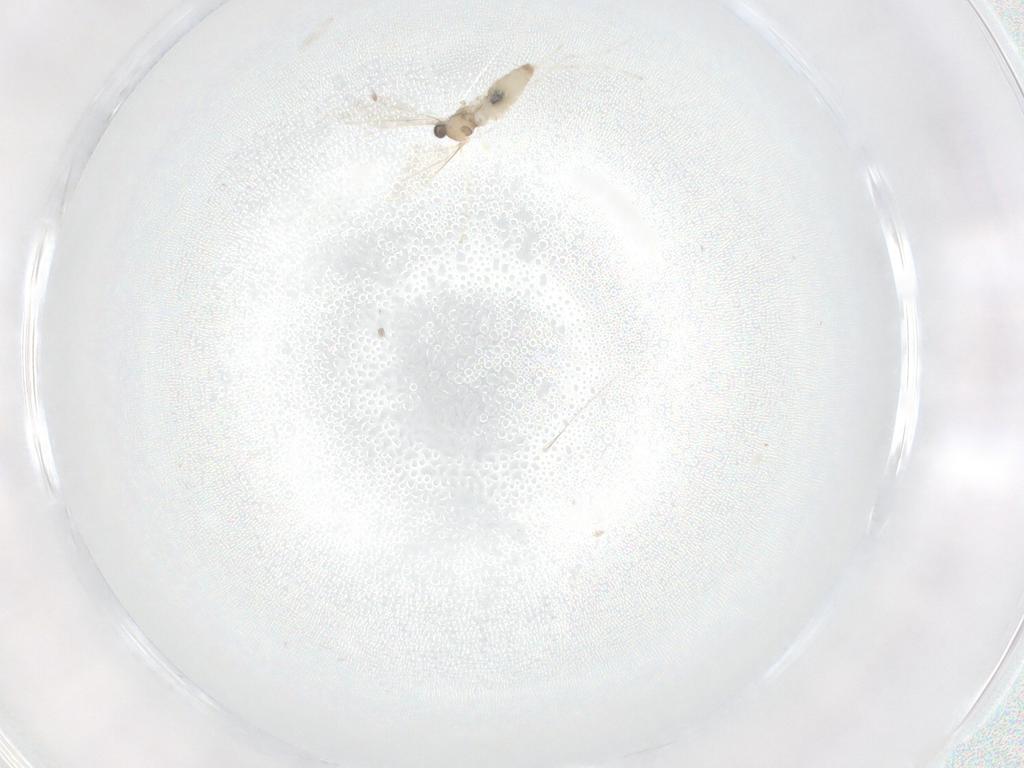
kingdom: Animalia
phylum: Arthropoda
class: Insecta
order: Diptera
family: Cecidomyiidae
